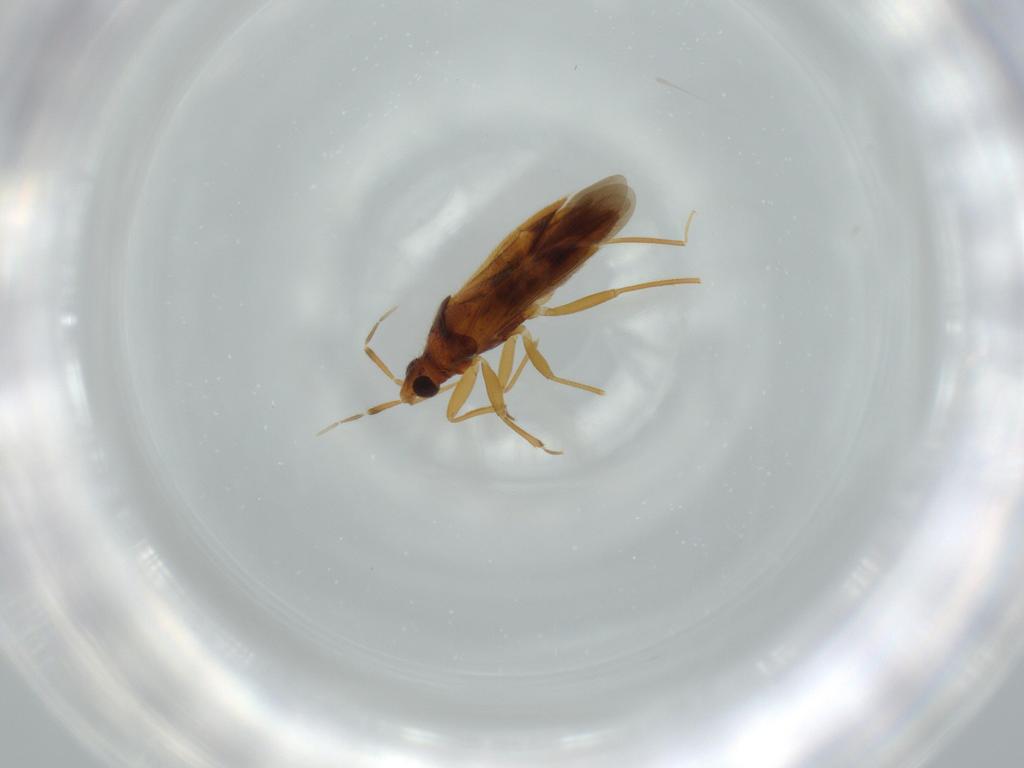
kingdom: Animalia
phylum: Arthropoda
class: Insecta
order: Hemiptera
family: Anthocoridae
